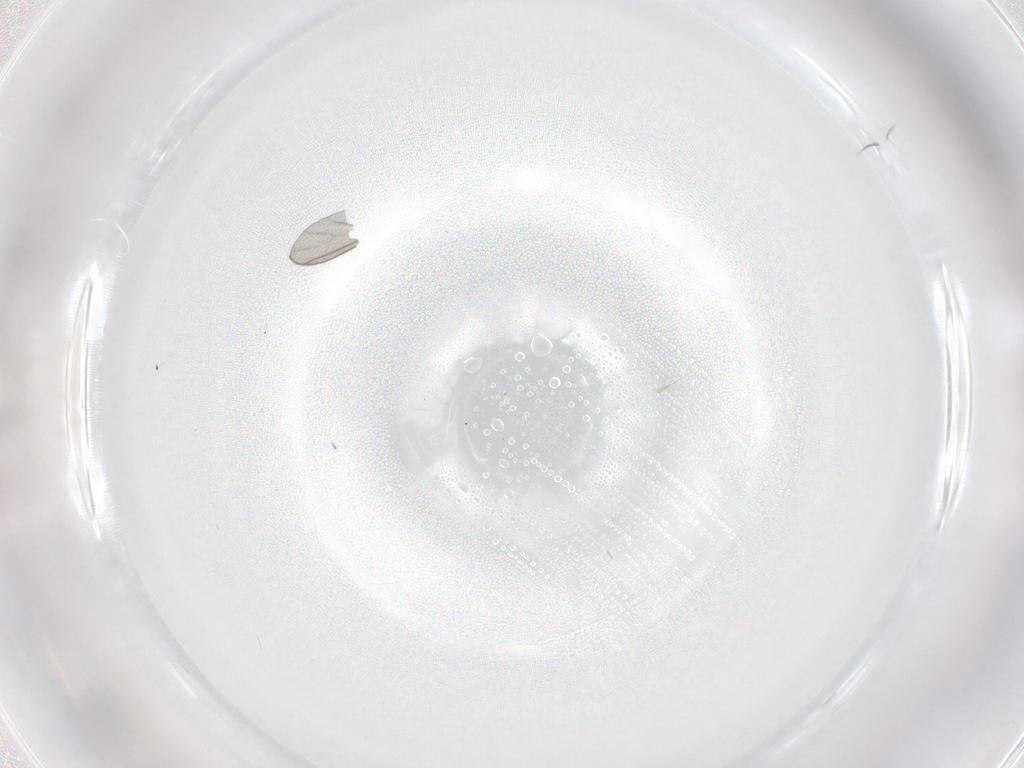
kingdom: Animalia
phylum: Arthropoda
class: Insecta
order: Diptera
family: Sciaridae
